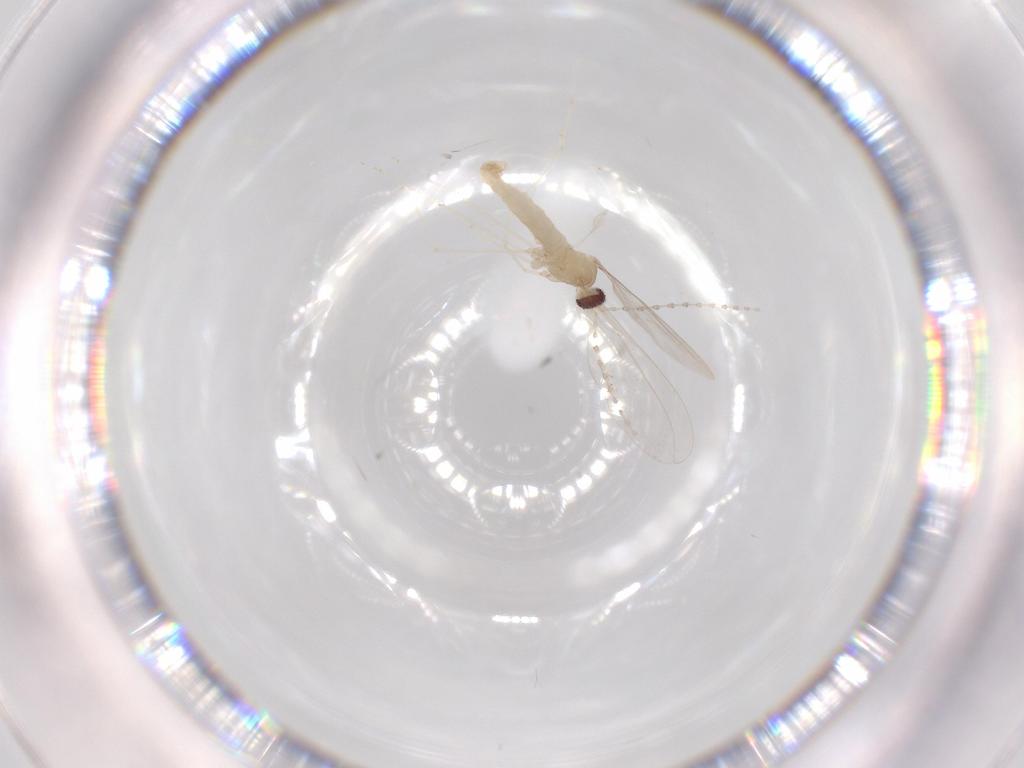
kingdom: Animalia
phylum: Arthropoda
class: Insecta
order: Diptera
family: Cecidomyiidae
